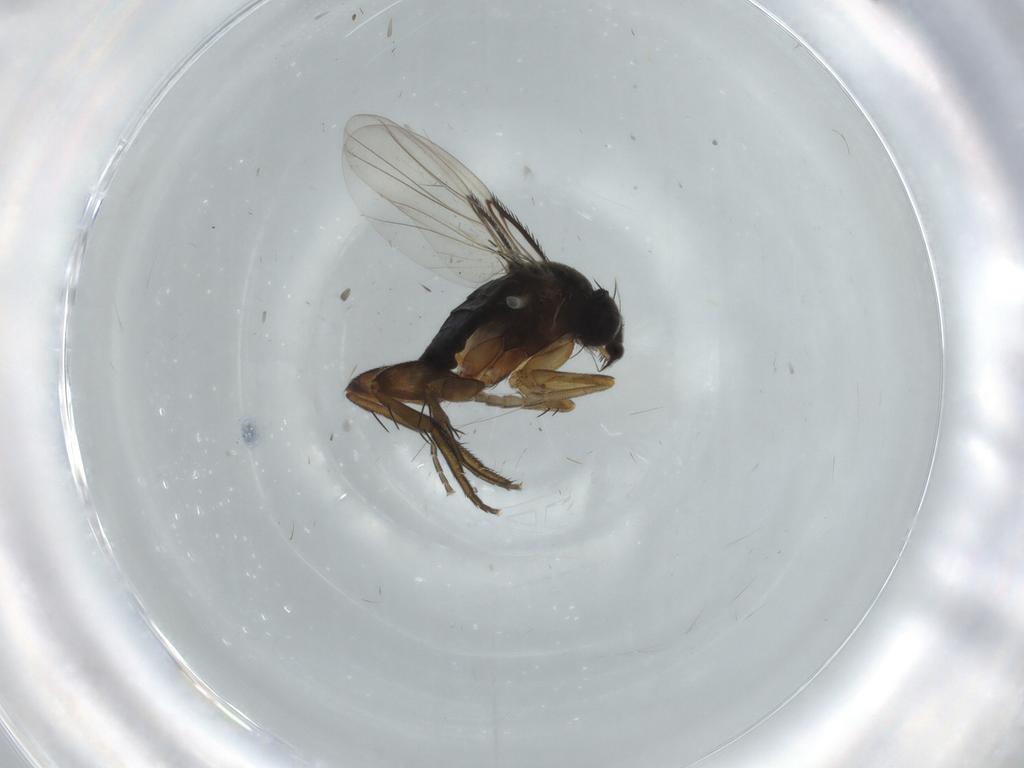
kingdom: Animalia
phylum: Arthropoda
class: Insecta
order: Diptera
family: Phoridae
